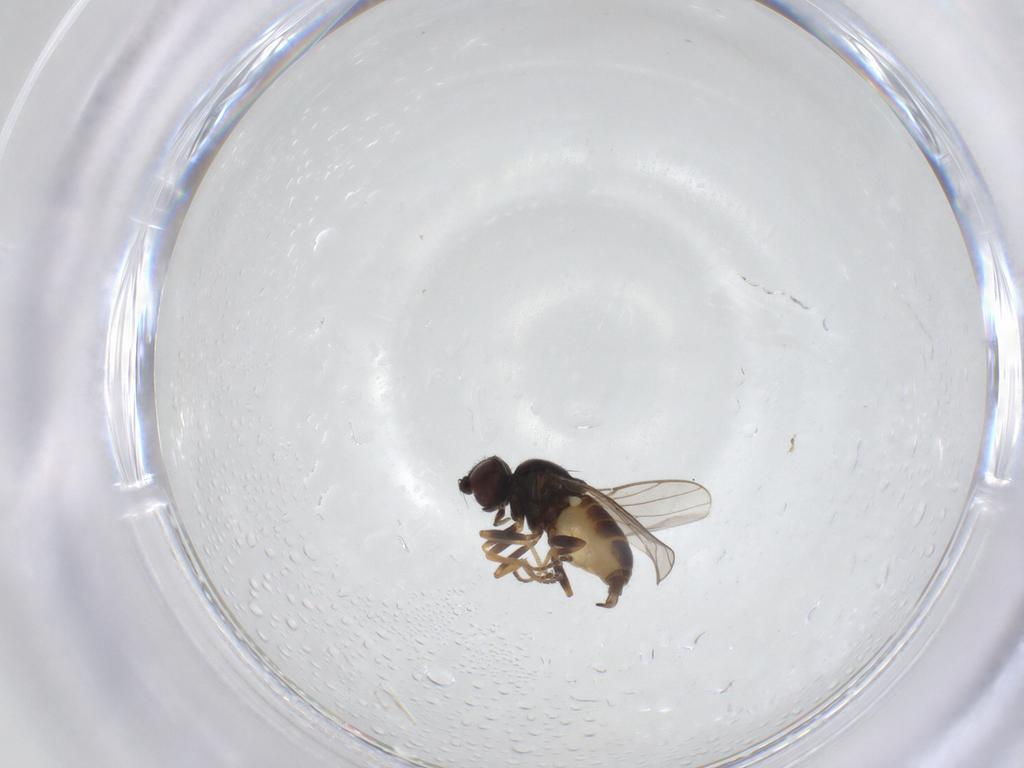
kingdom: Animalia
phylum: Arthropoda
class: Insecta
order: Diptera
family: Chloropidae
